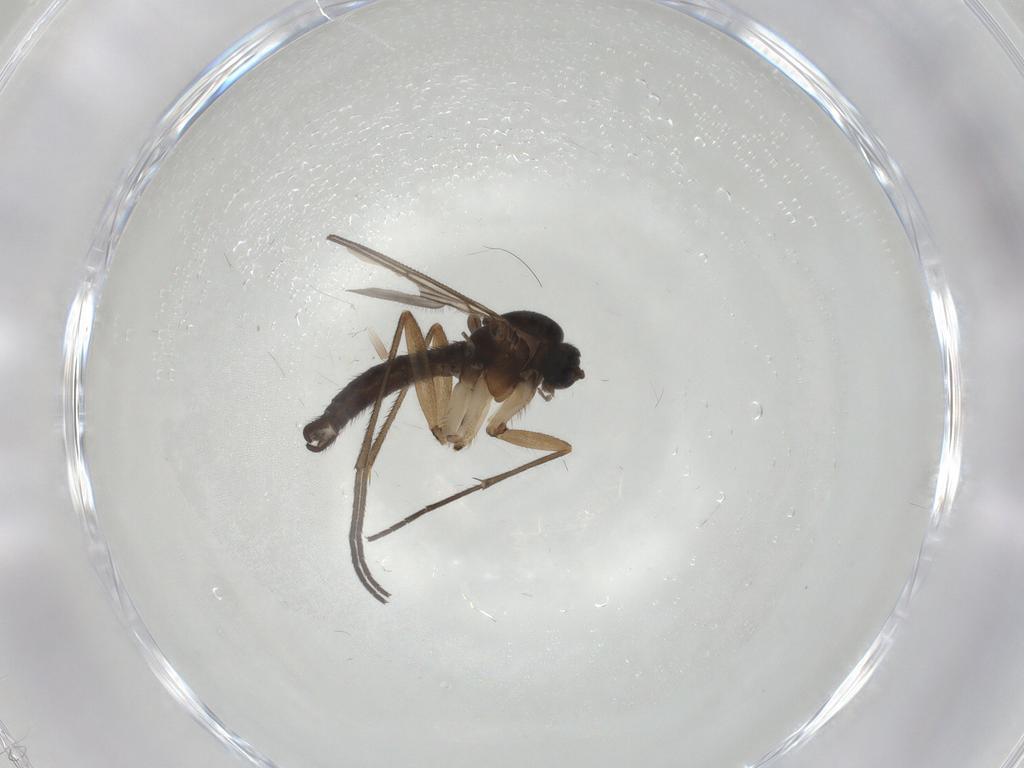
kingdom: Animalia
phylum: Arthropoda
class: Insecta
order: Diptera
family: Sciaridae
